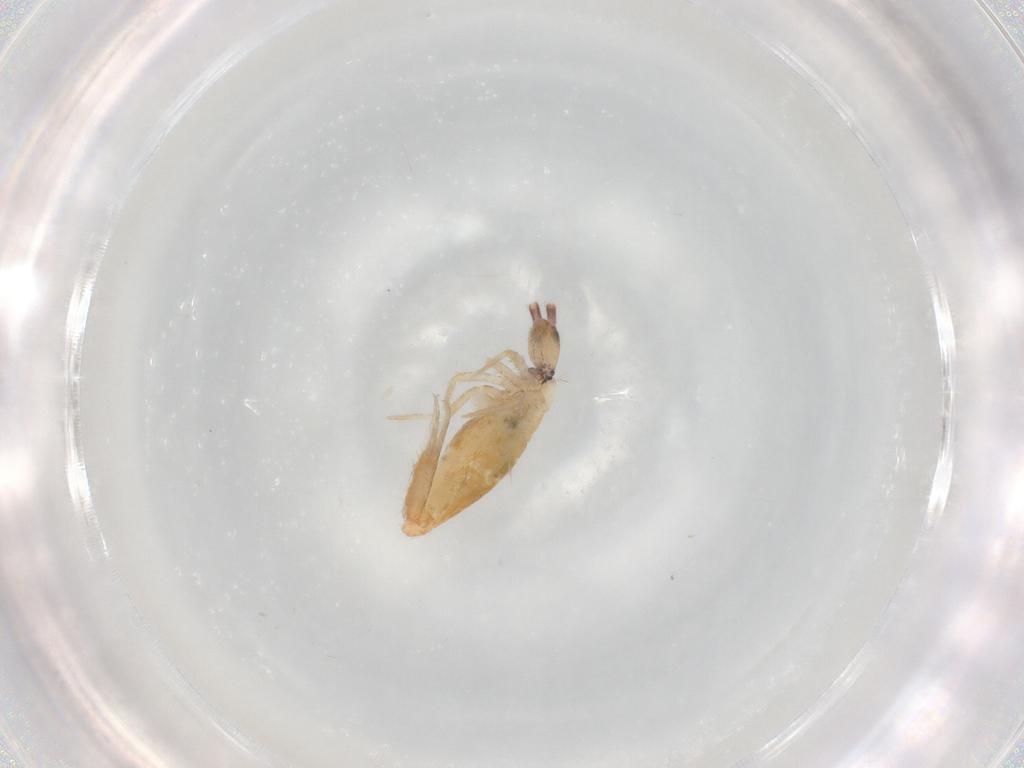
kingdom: Animalia
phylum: Arthropoda
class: Collembola
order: Entomobryomorpha
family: Entomobryidae
